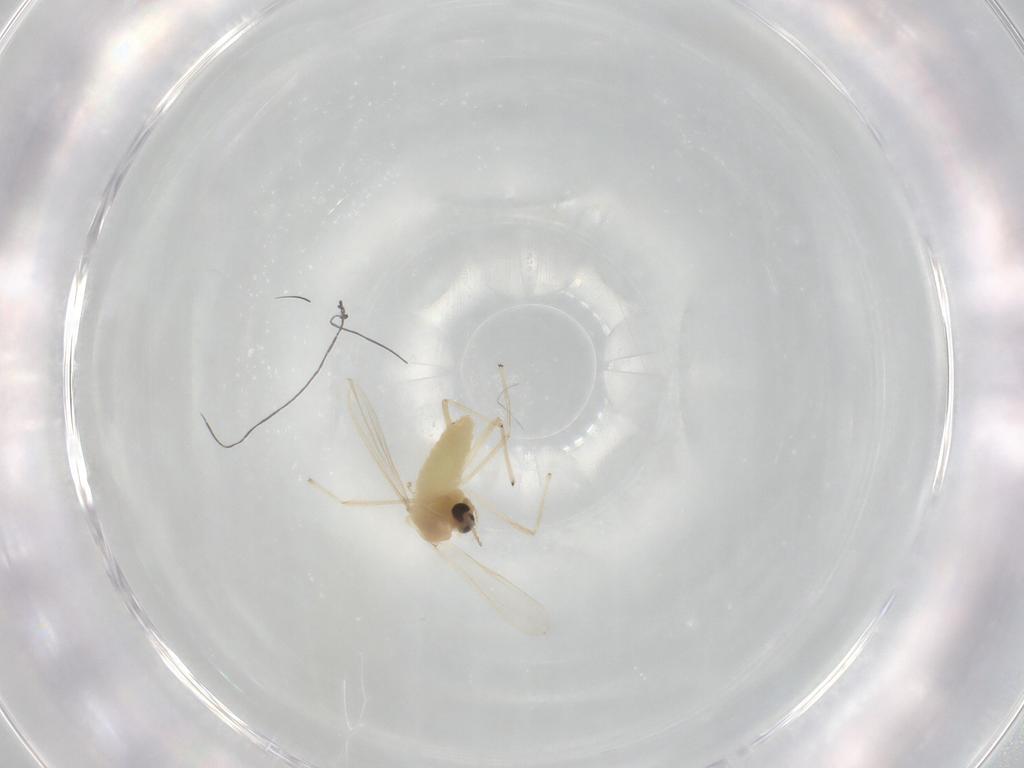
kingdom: Animalia
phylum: Arthropoda
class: Insecta
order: Diptera
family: Chironomidae
